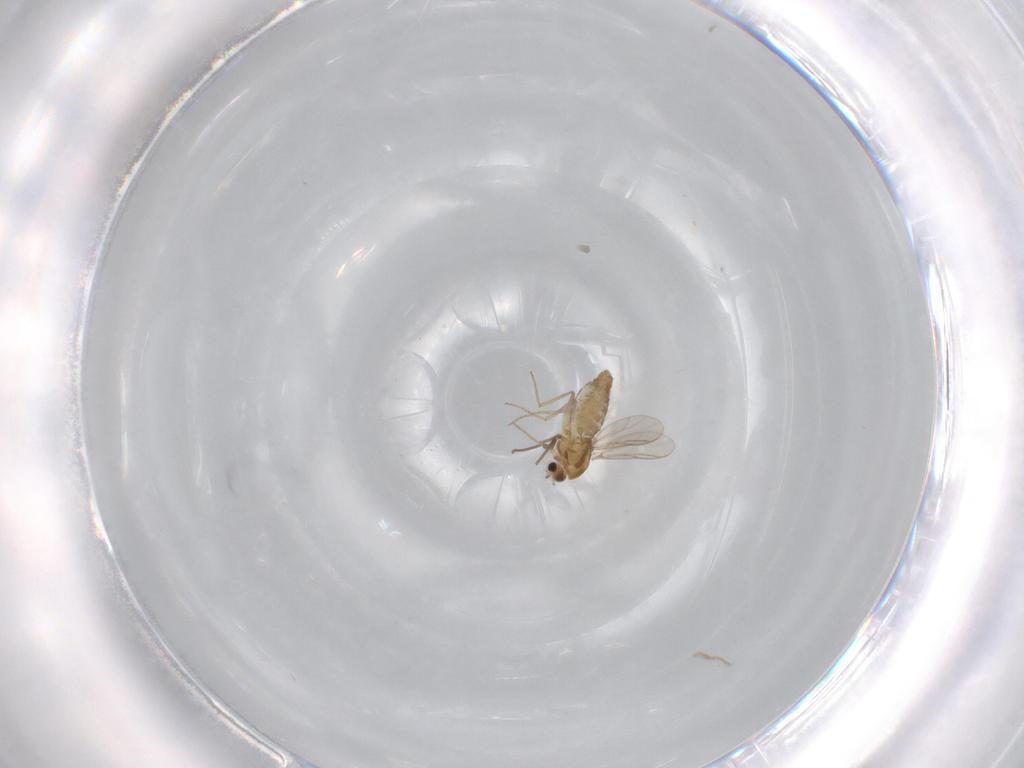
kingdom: Animalia
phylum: Arthropoda
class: Insecta
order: Diptera
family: Chironomidae
